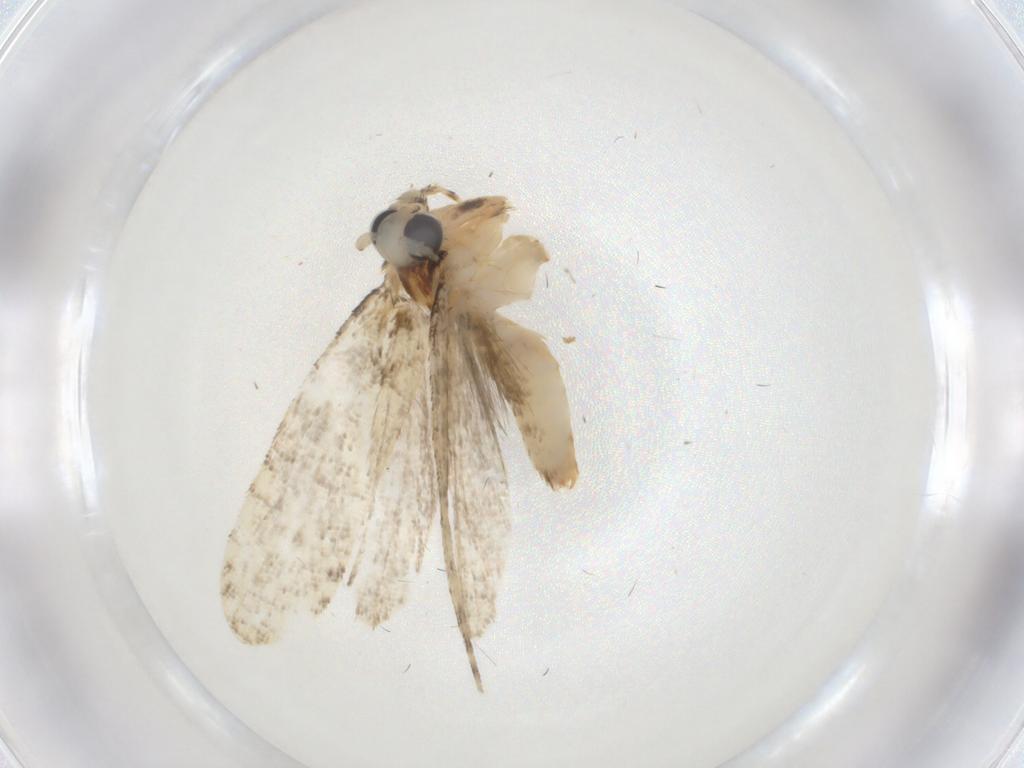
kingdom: Animalia
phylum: Arthropoda
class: Insecta
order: Lepidoptera
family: Tineidae
